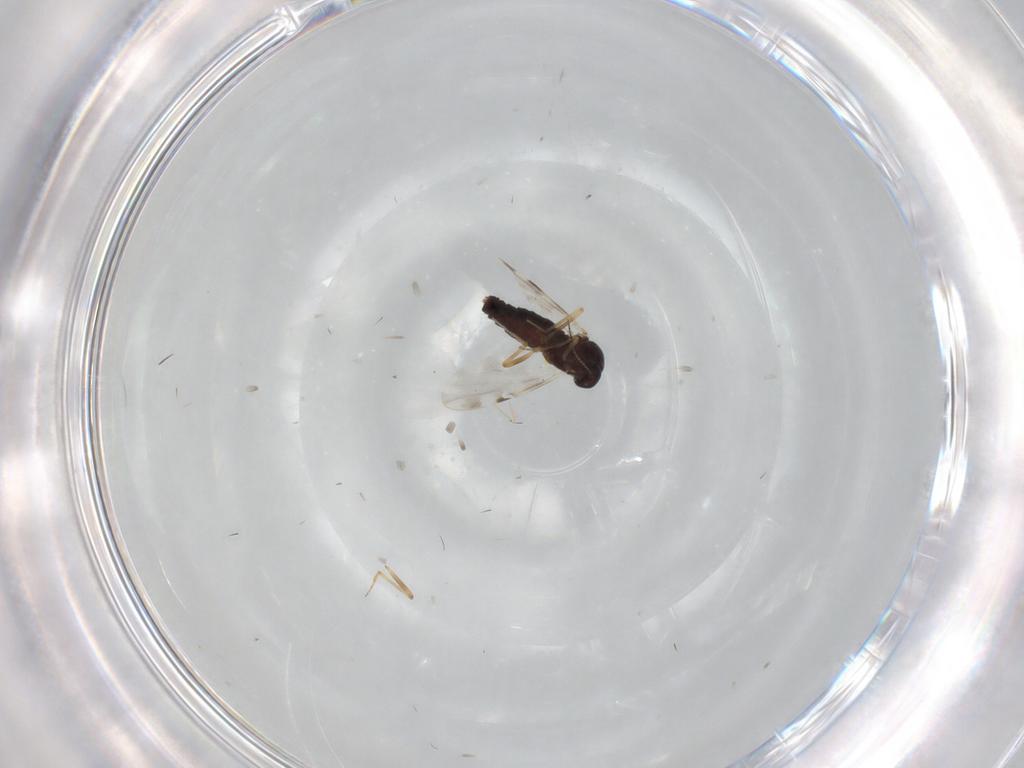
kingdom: Animalia
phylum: Arthropoda
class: Insecta
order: Diptera
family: Ceratopogonidae
